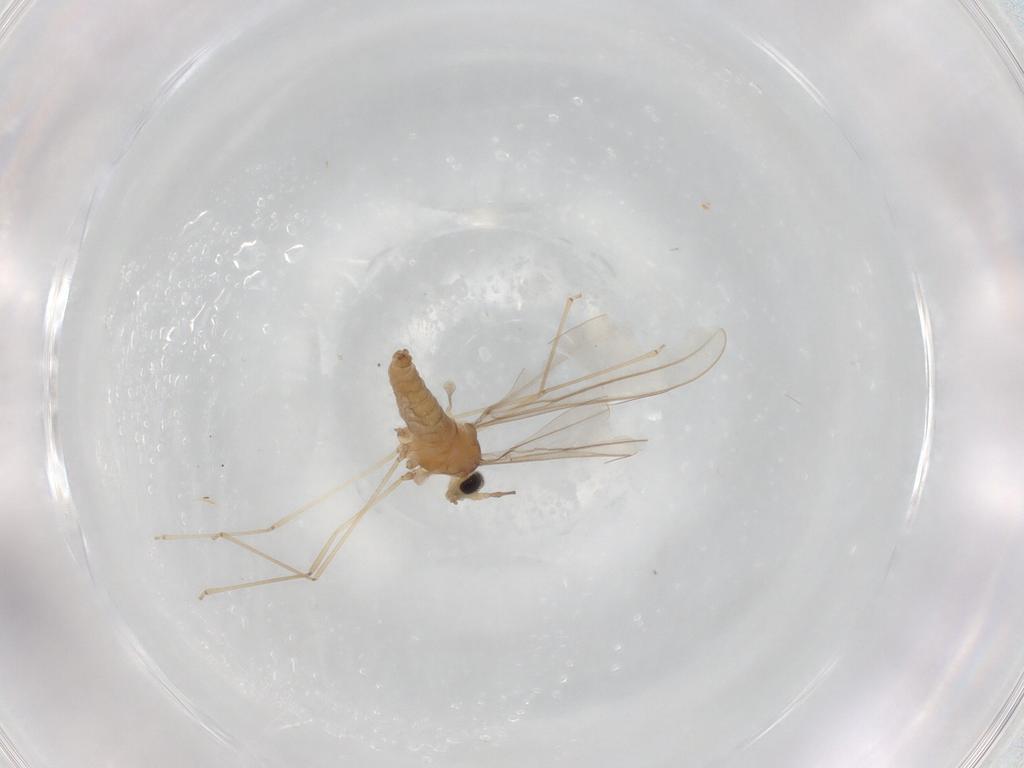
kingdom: Animalia
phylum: Arthropoda
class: Insecta
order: Diptera
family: Cecidomyiidae
